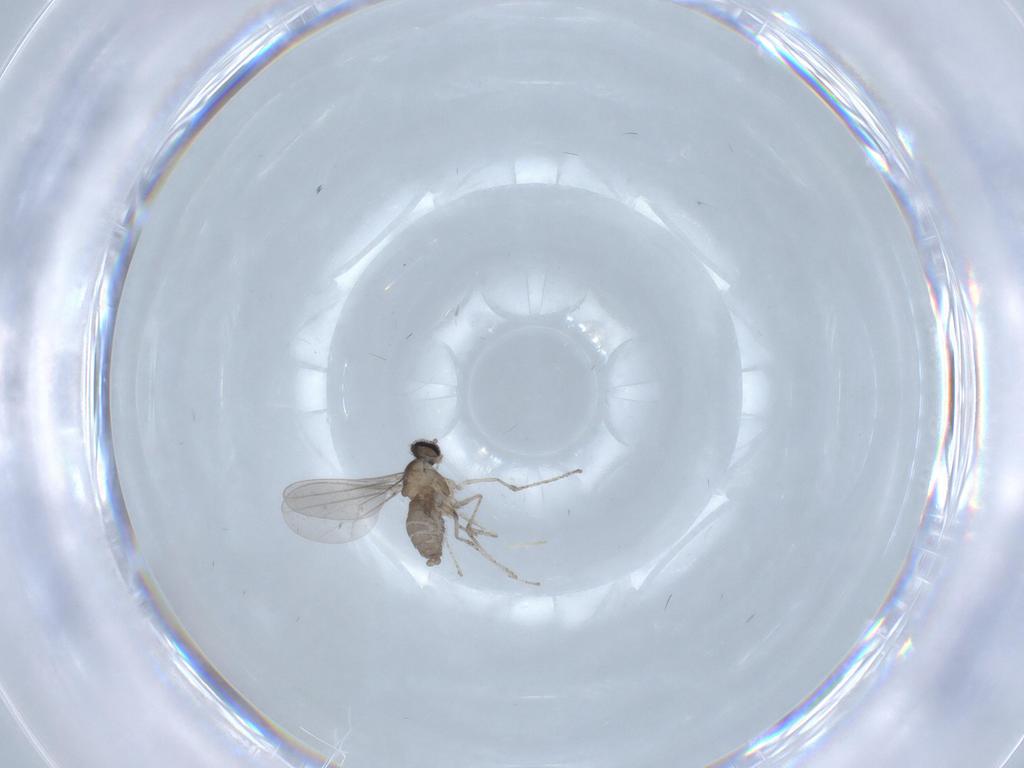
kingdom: Animalia
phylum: Arthropoda
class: Insecta
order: Diptera
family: Cecidomyiidae
